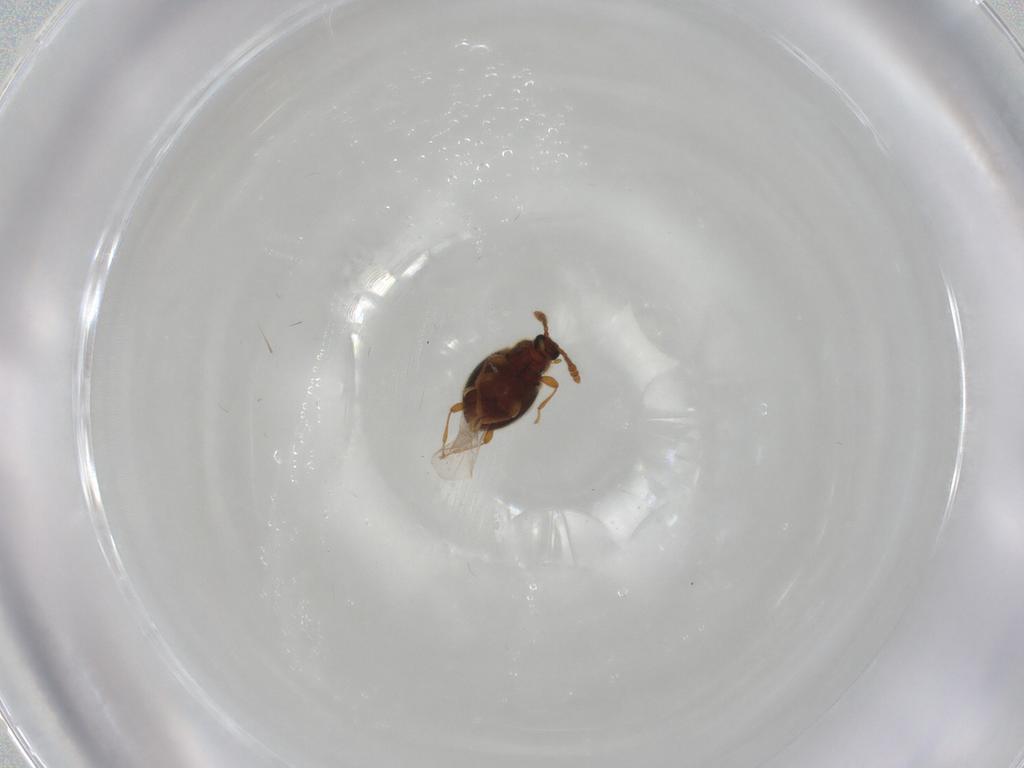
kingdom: Animalia
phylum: Arthropoda
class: Insecta
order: Coleoptera
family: Staphylinidae
